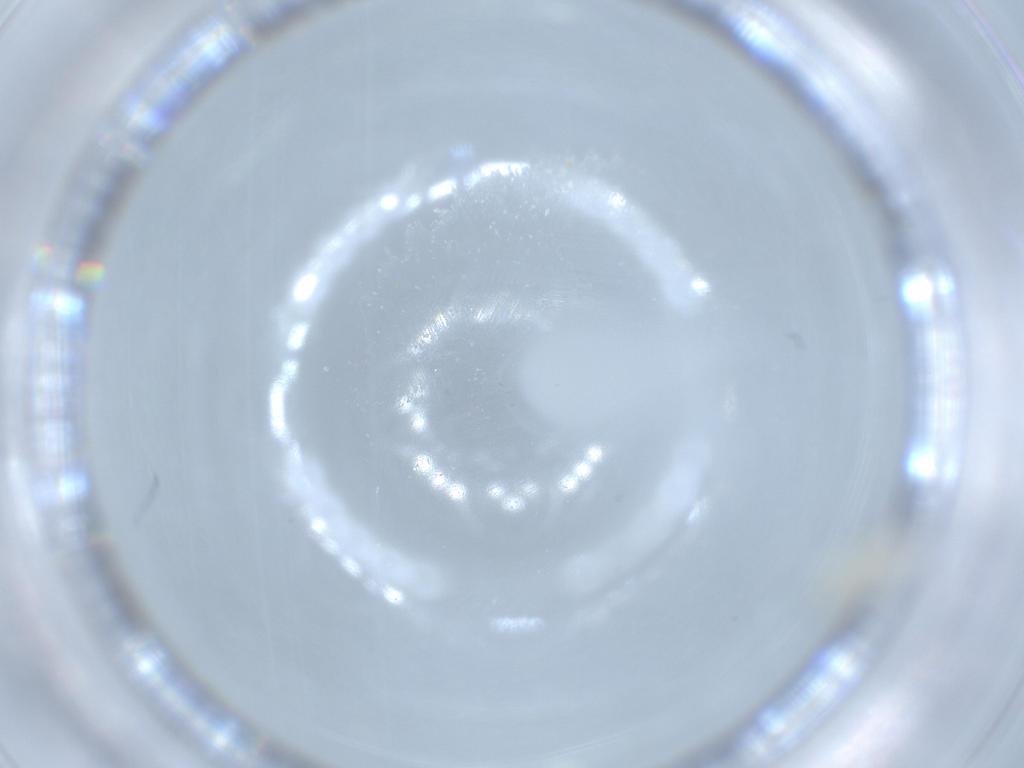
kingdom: Animalia
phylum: Arthropoda
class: Insecta
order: Psocodea
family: Caeciliusidae
